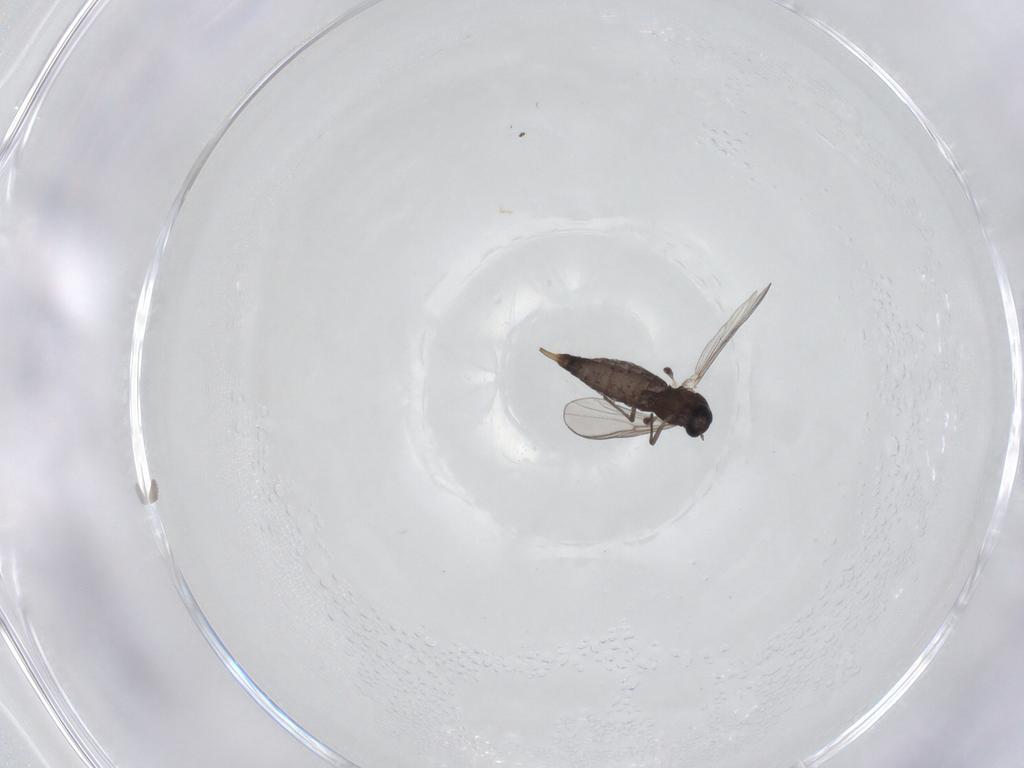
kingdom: Animalia
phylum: Arthropoda
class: Insecta
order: Diptera
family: Chironomidae
